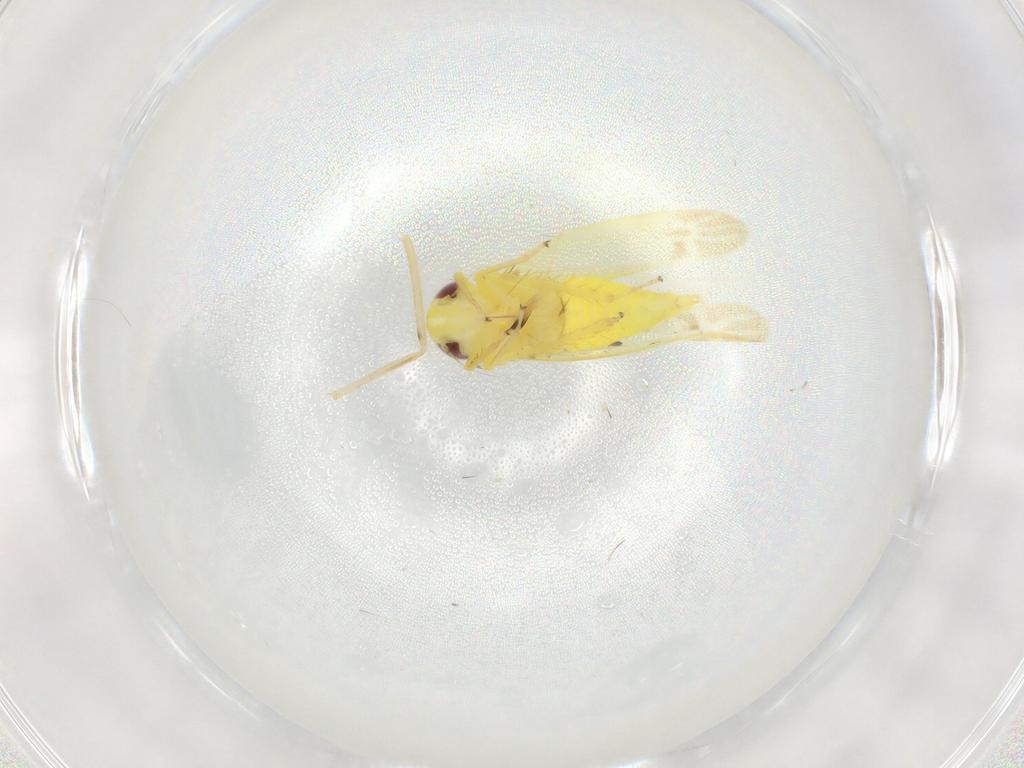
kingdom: Animalia
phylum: Arthropoda
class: Insecta
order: Hemiptera
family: Cicadellidae
